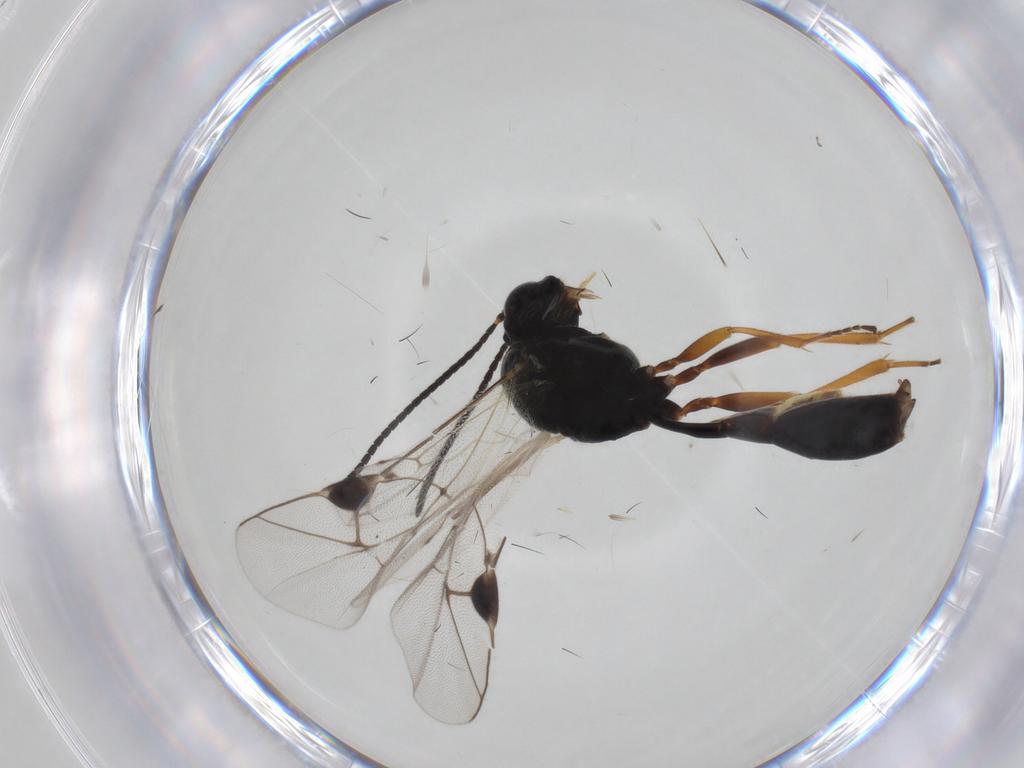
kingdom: Animalia
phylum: Arthropoda
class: Insecta
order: Hymenoptera
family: Ichneumonidae
